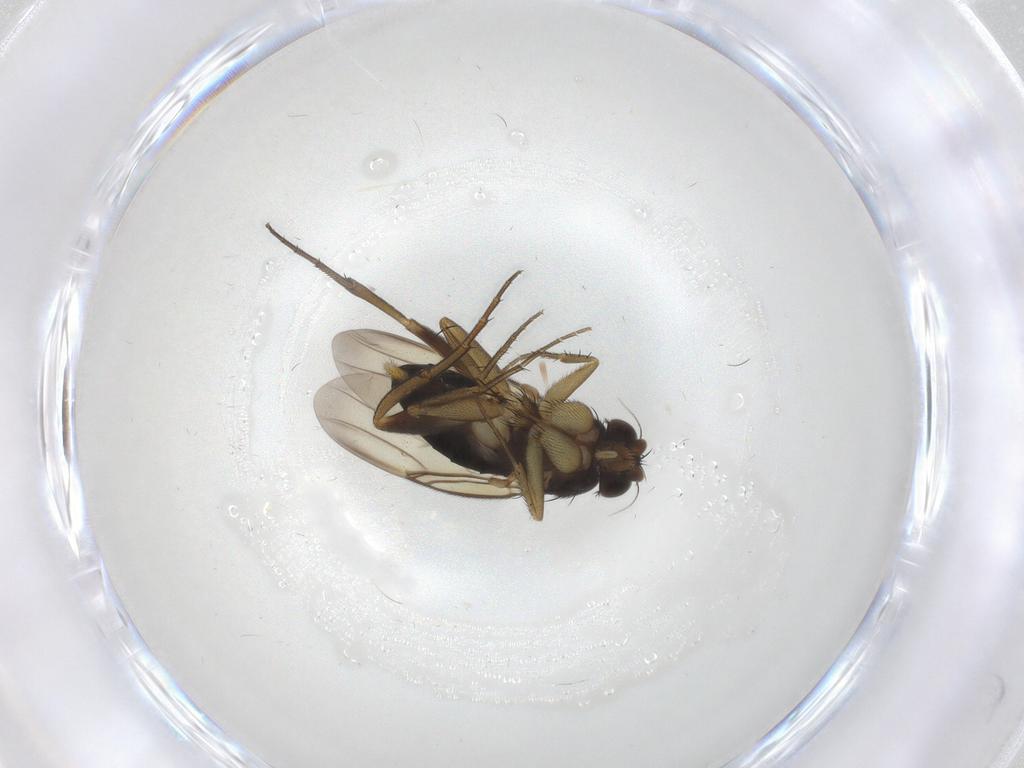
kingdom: Animalia
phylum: Arthropoda
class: Insecta
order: Diptera
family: Phoridae
